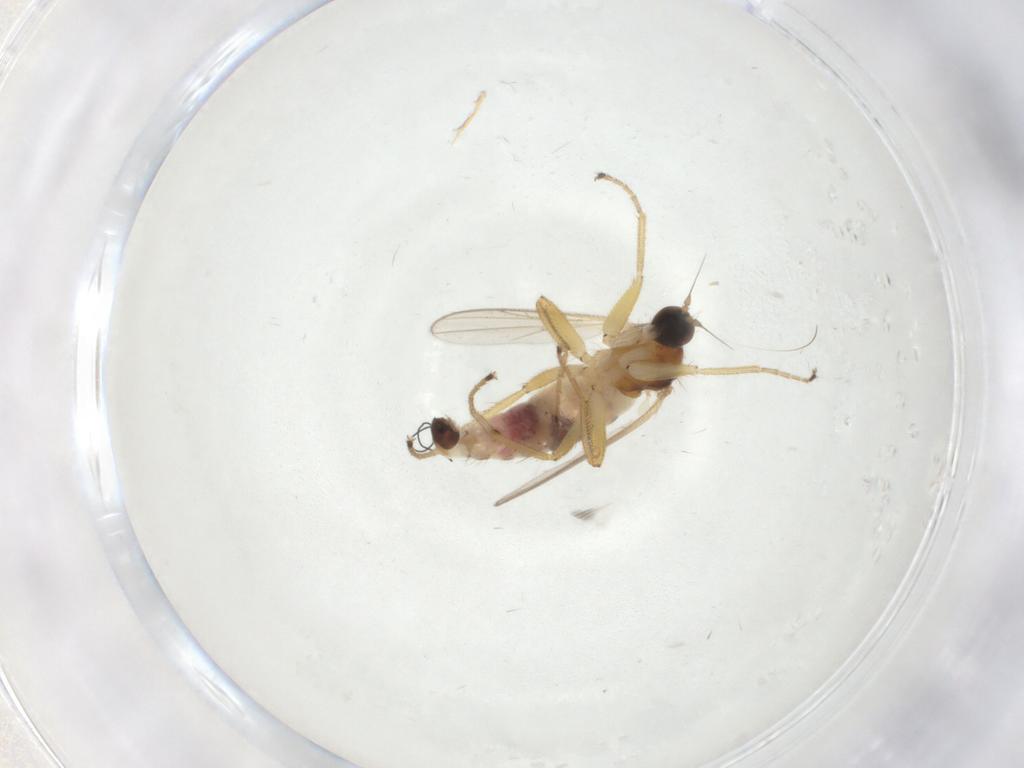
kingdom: Animalia
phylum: Arthropoda
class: Insecta
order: Diptera
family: Hybotidae
